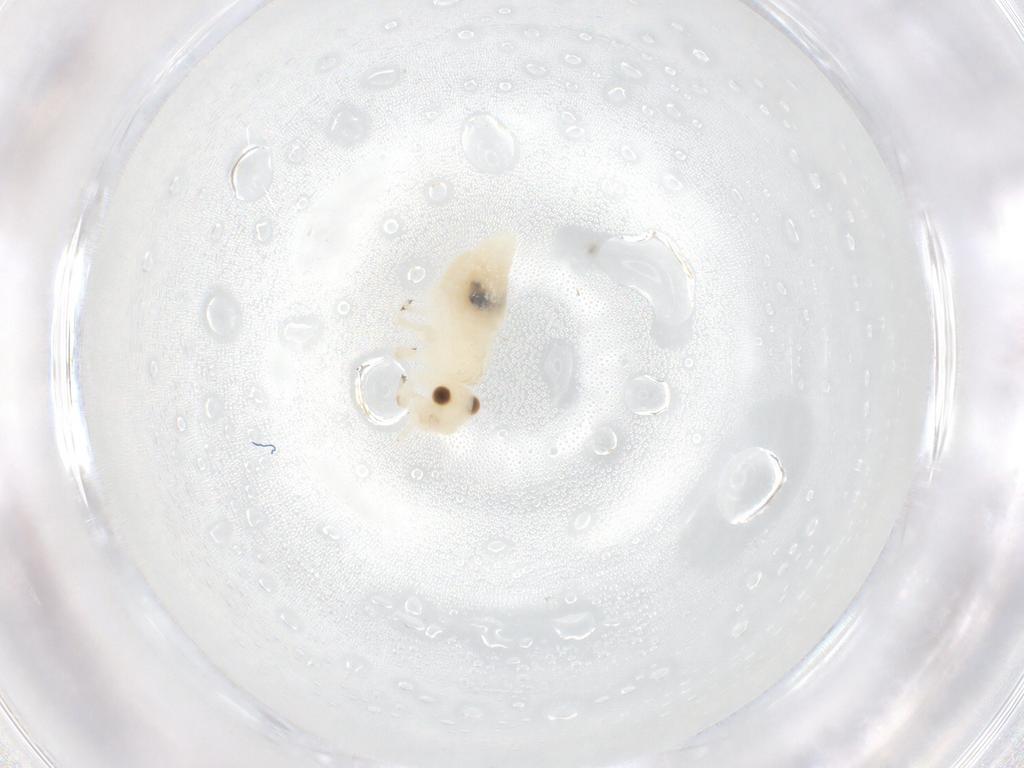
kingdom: Animalia
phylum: Arthropoda
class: Insecta
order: Psocodea
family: Caeciliusidae
